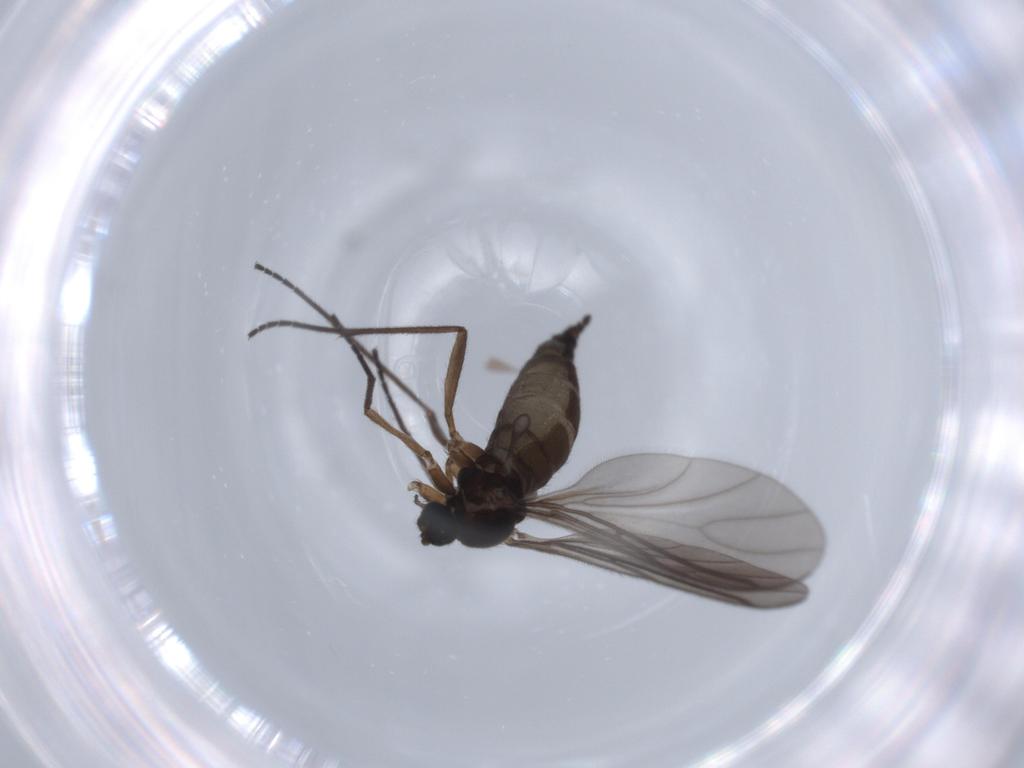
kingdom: Animalia
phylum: Arthropoda
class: Insecta
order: Diptera
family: Sciaridae
